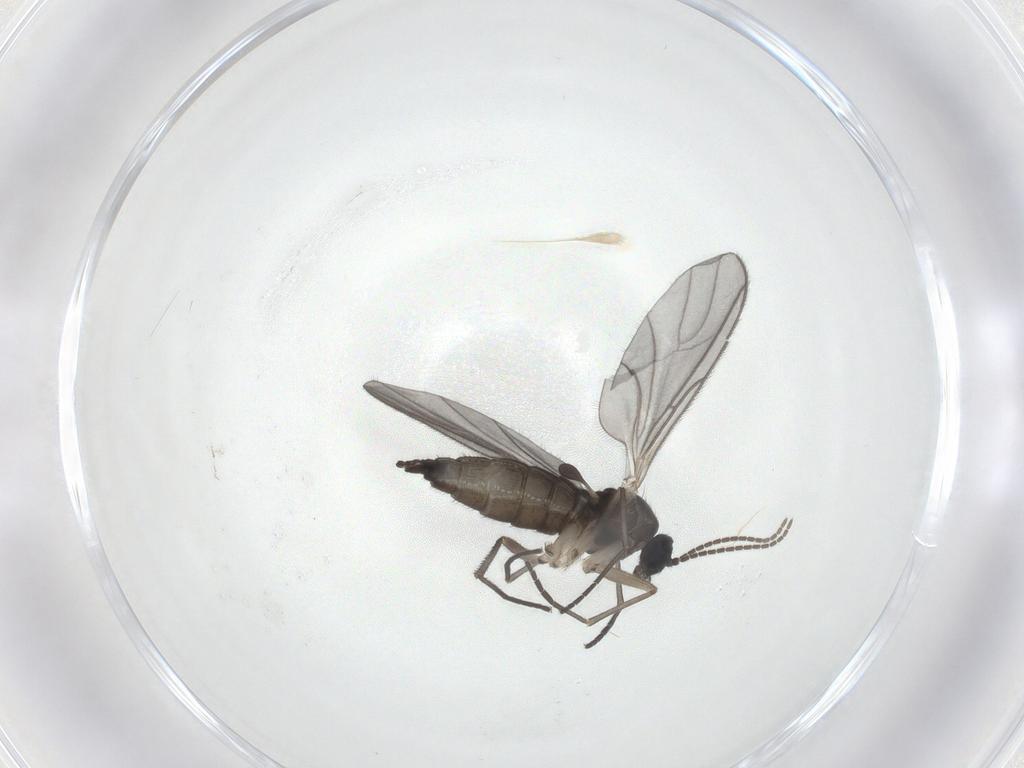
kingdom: Animalia
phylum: Arthropoda
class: Insecta
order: Diptera
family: Sciaridae
